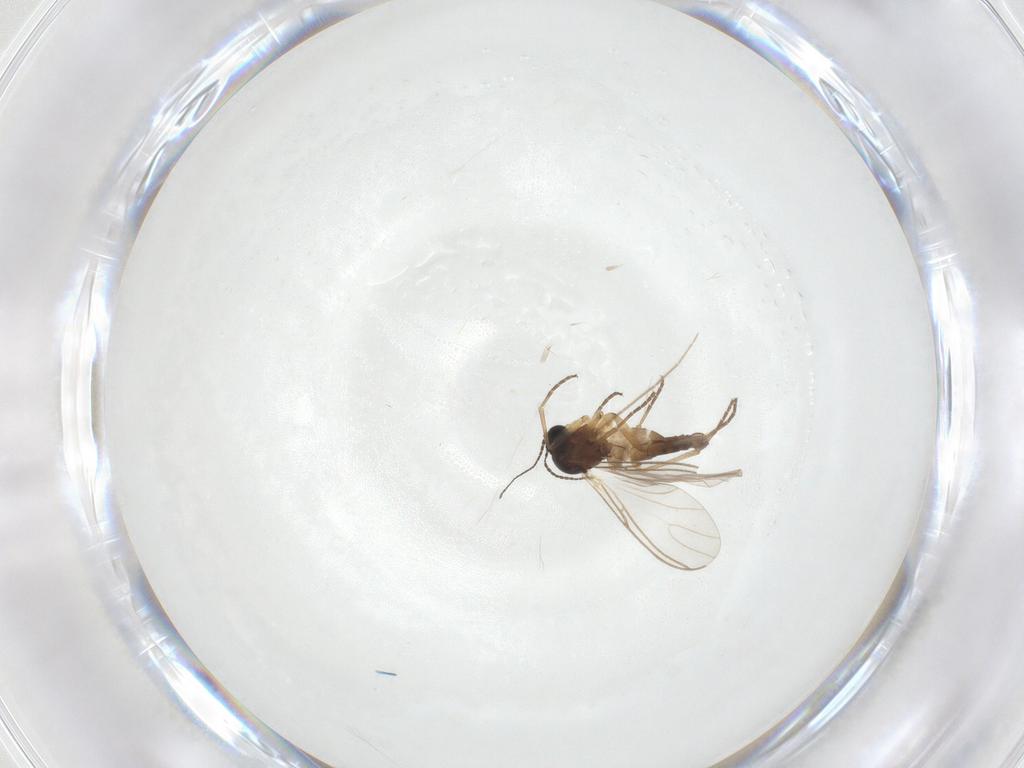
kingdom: Animalia
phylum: Arthropoda
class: Insecta
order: Diptera
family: Chironomidae
